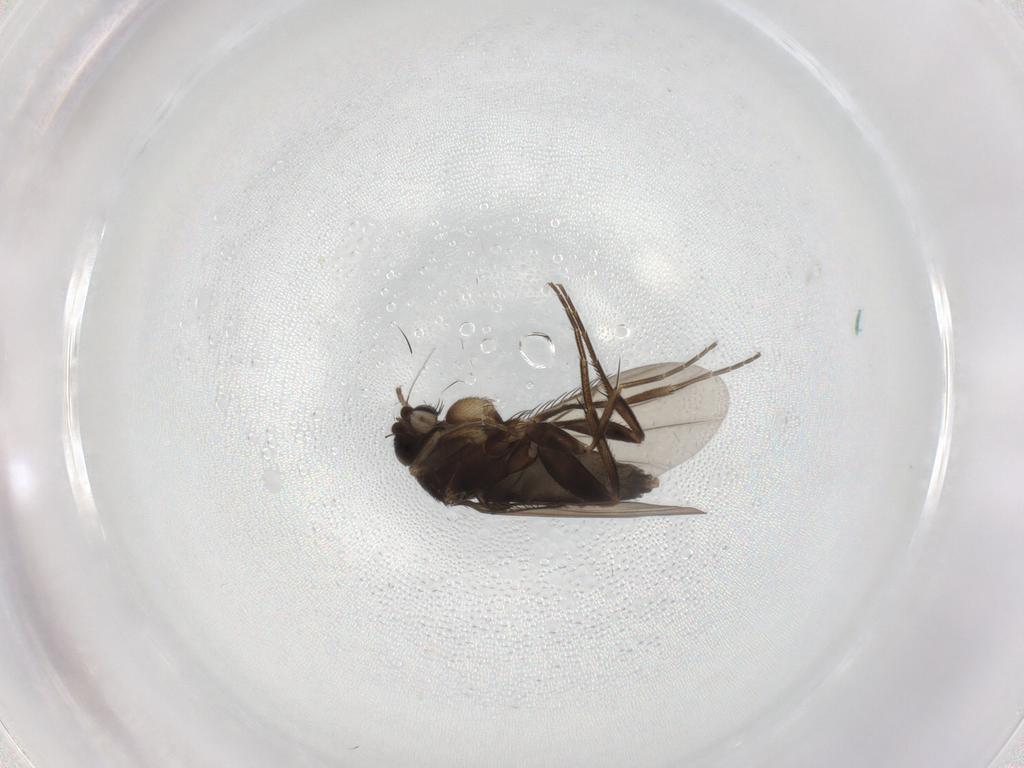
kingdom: Animalia
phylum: Arthropoda
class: Insecta
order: Diptera
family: Phoridae
